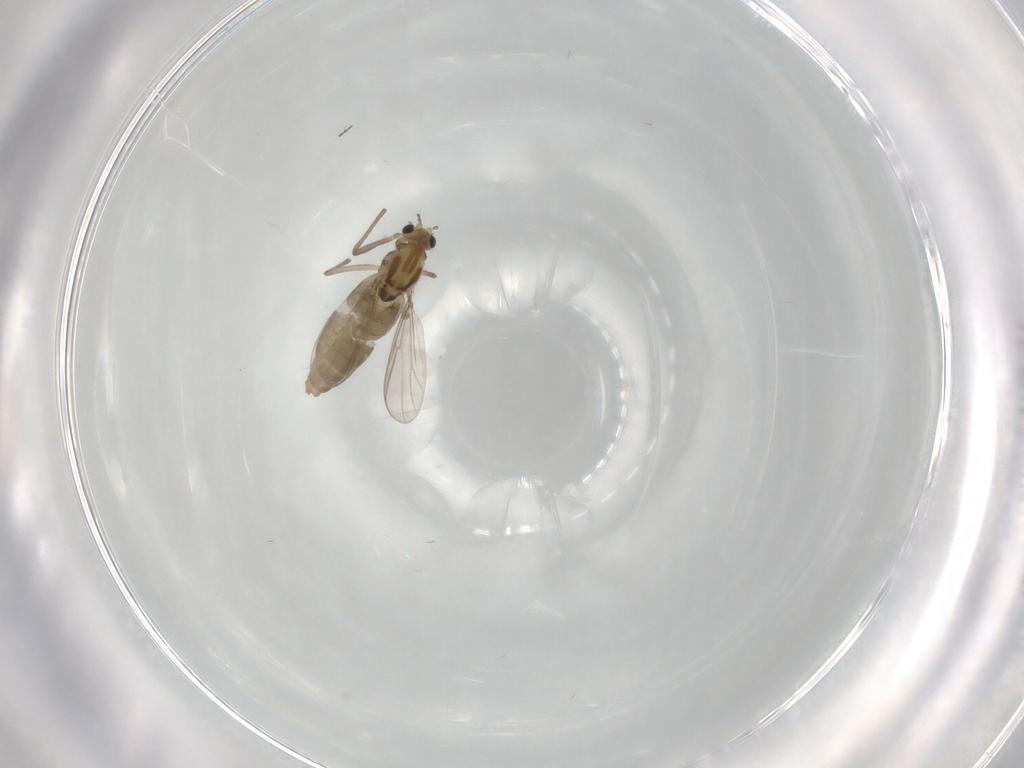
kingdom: Animalia
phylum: Arthropoda
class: Insecta
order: Diptera
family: Chironomidae
